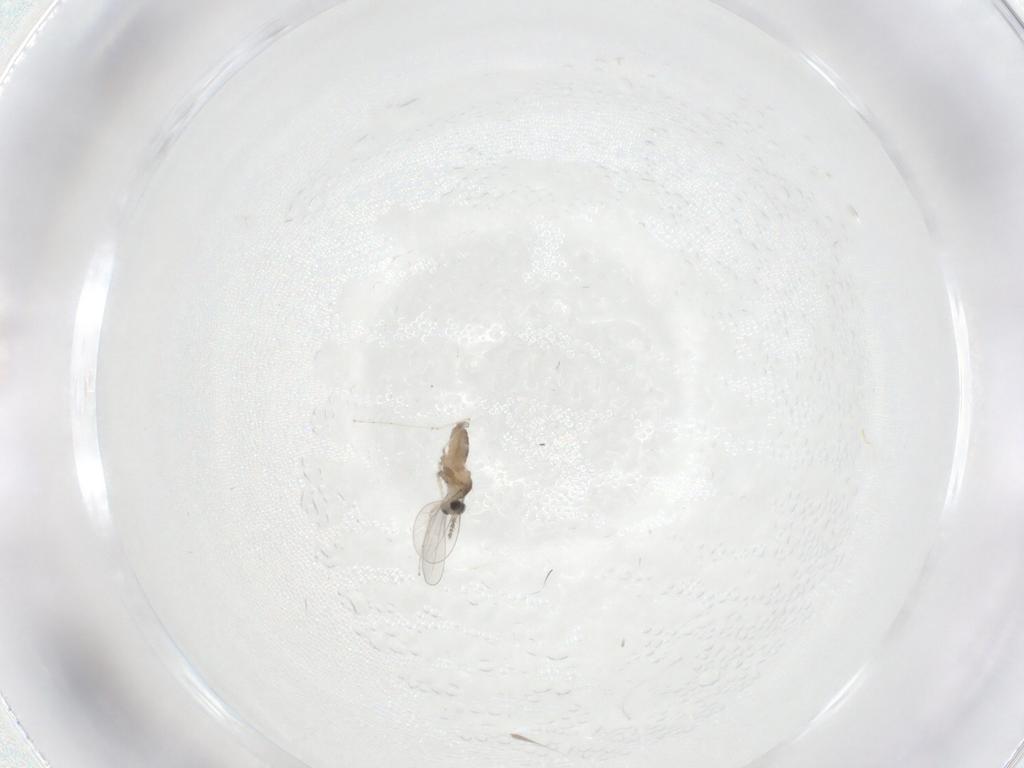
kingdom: Animalia
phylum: Arthropoda
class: Insecta
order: Diptera
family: Cecidomyiidae
